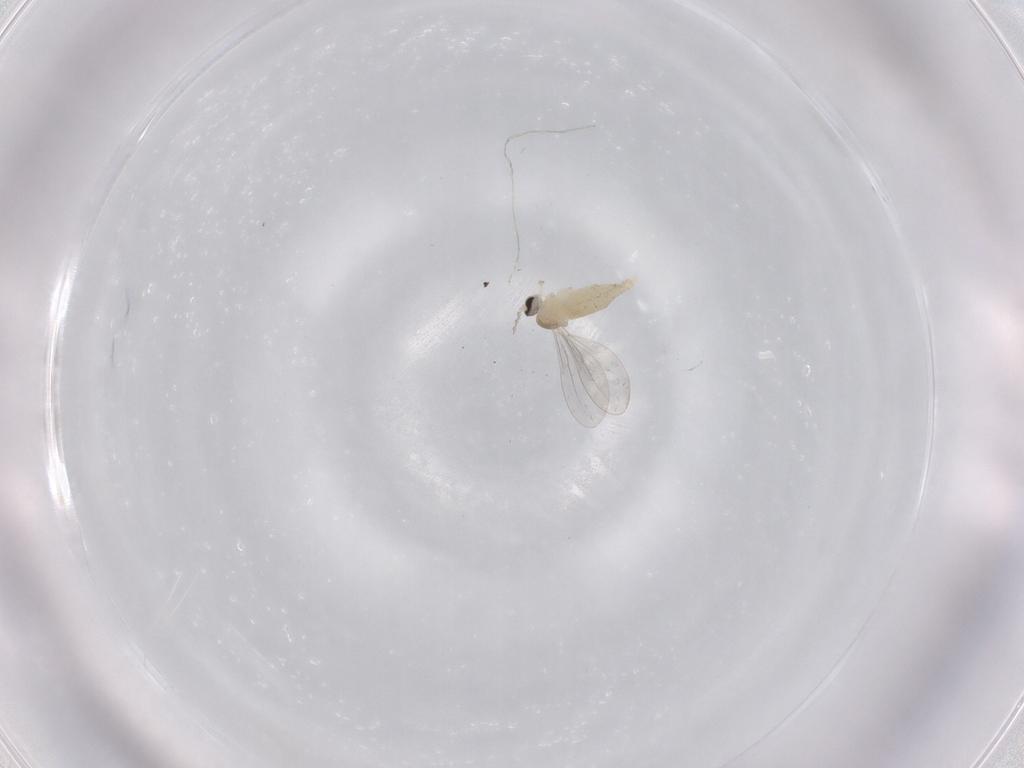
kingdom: Animalia
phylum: Arthropoda
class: Insecta
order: Diptera
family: Cecidomyiidae
